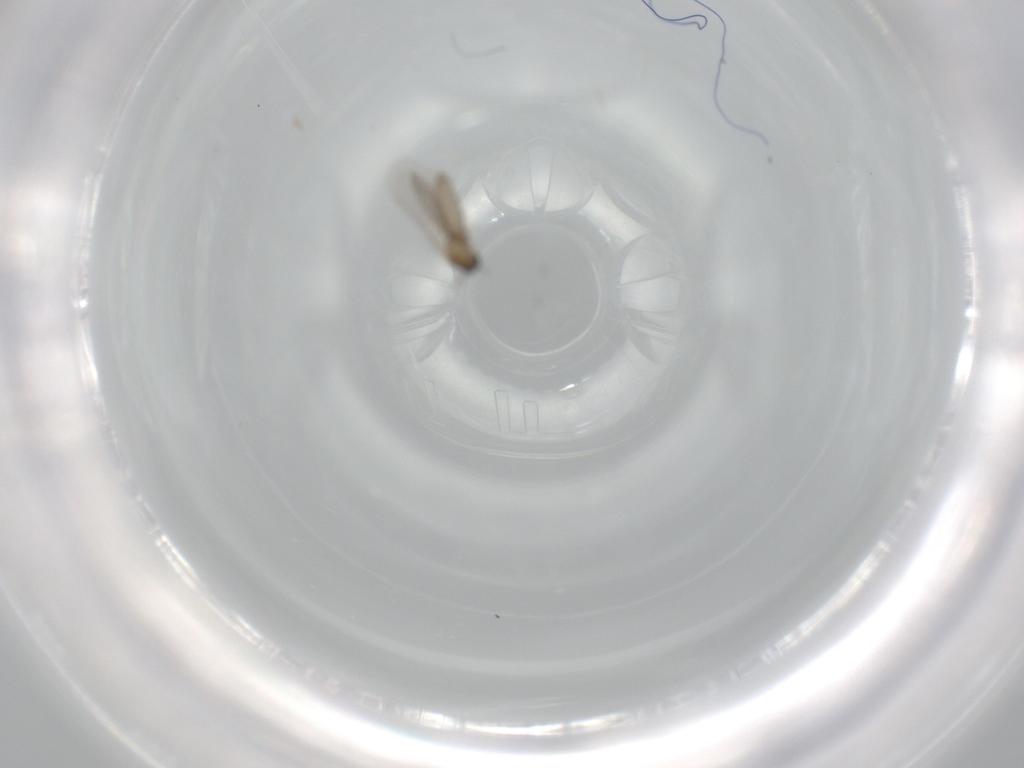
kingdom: Animalia
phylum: Arthropoda
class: Insecta
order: Diptera
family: Cecidomyiidae
